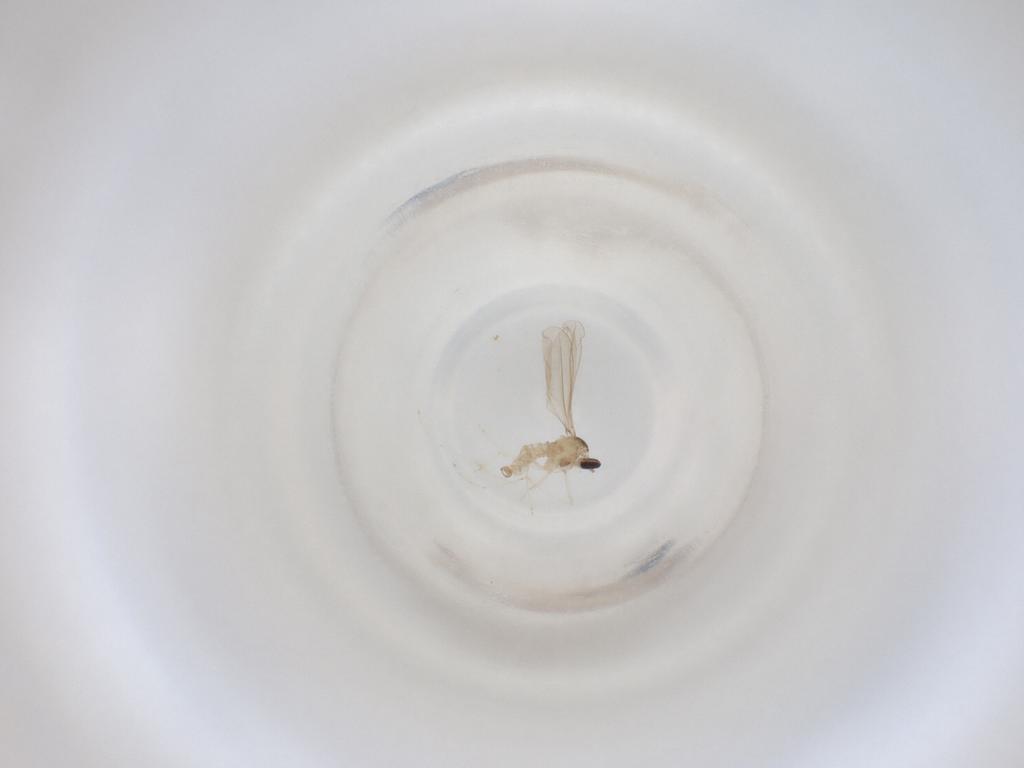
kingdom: Animalia
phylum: Arthropoda
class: Insecta
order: Diptera
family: Cecidomyiidae
